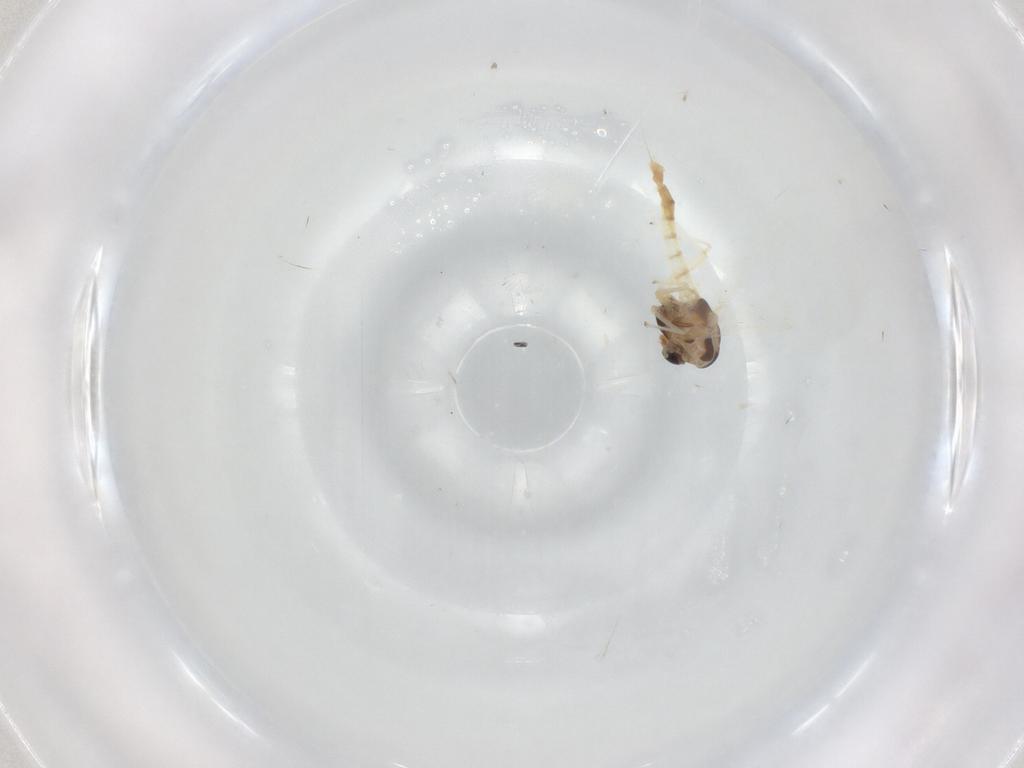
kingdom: Animalia
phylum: Arthropoda
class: Insecta
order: Diptera
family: Chironomidae
